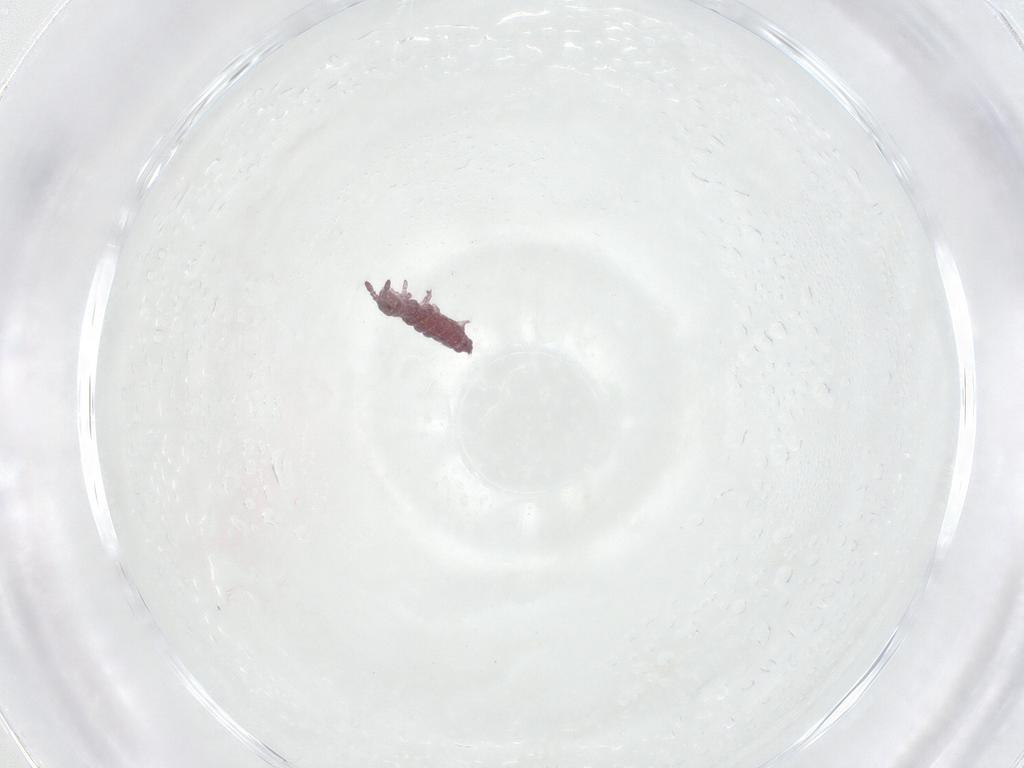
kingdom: Animalia
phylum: Arthropoda
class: Collembola
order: Poduromorpha
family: Hypogastruridae
